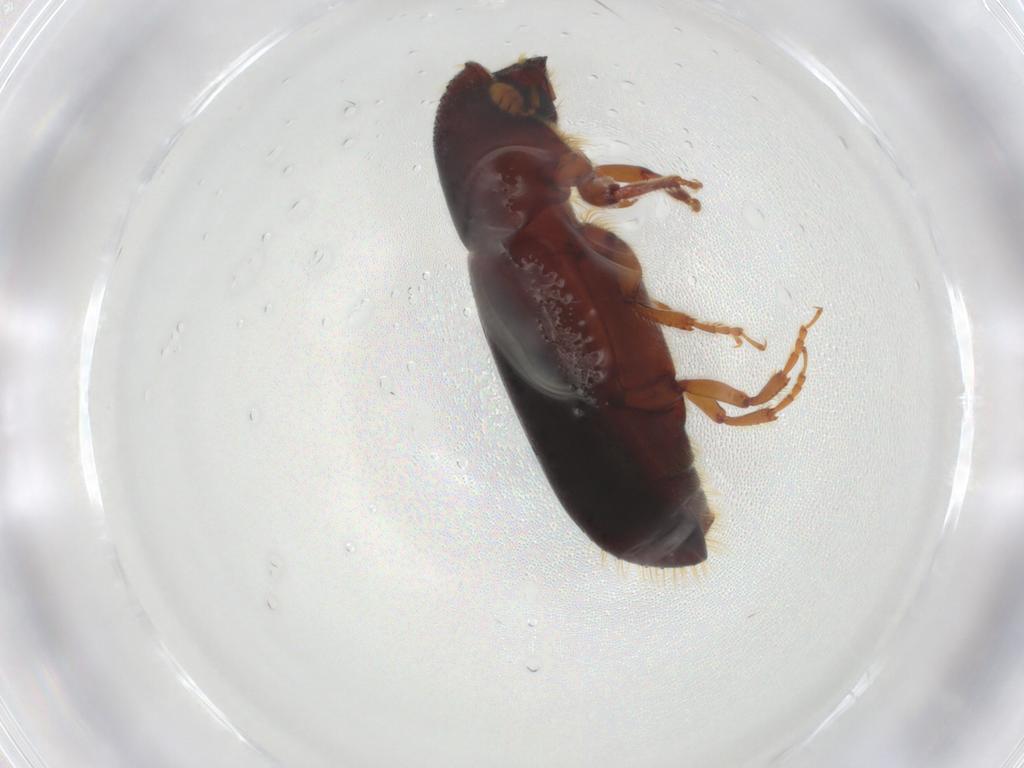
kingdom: Animalia
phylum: Arthropoda
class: Insecta
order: Coleoptera
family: Curculionidae
